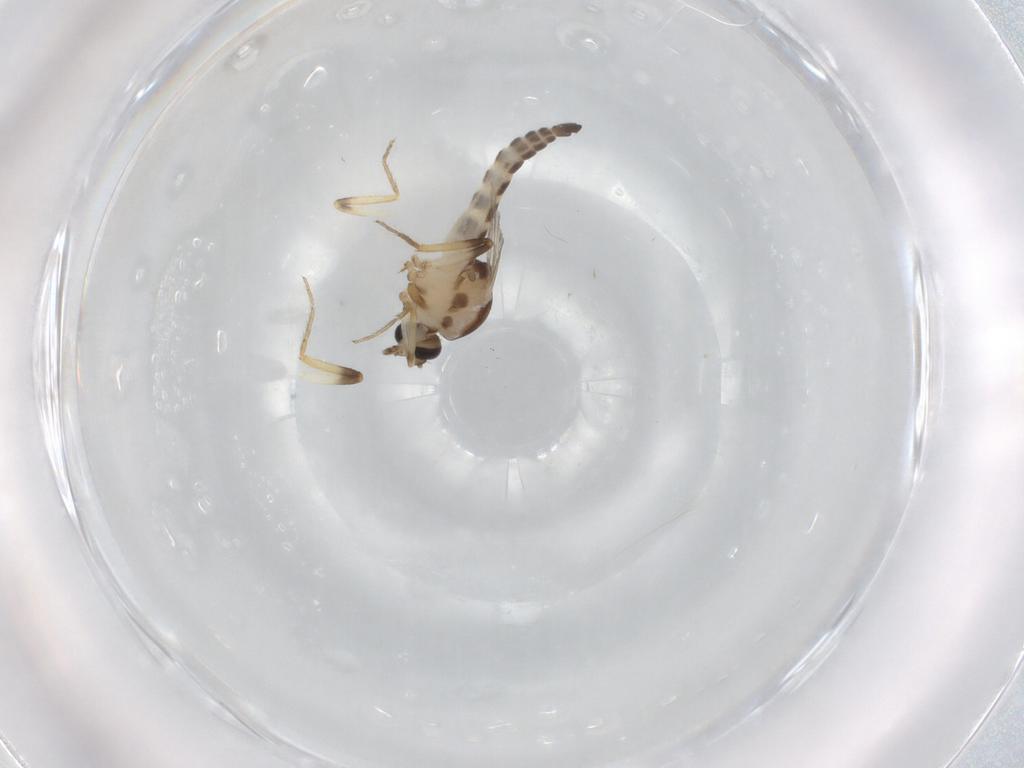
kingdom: Animalia
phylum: Arthropoda
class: Insecta
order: Diptera
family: Ceratopogonidae
